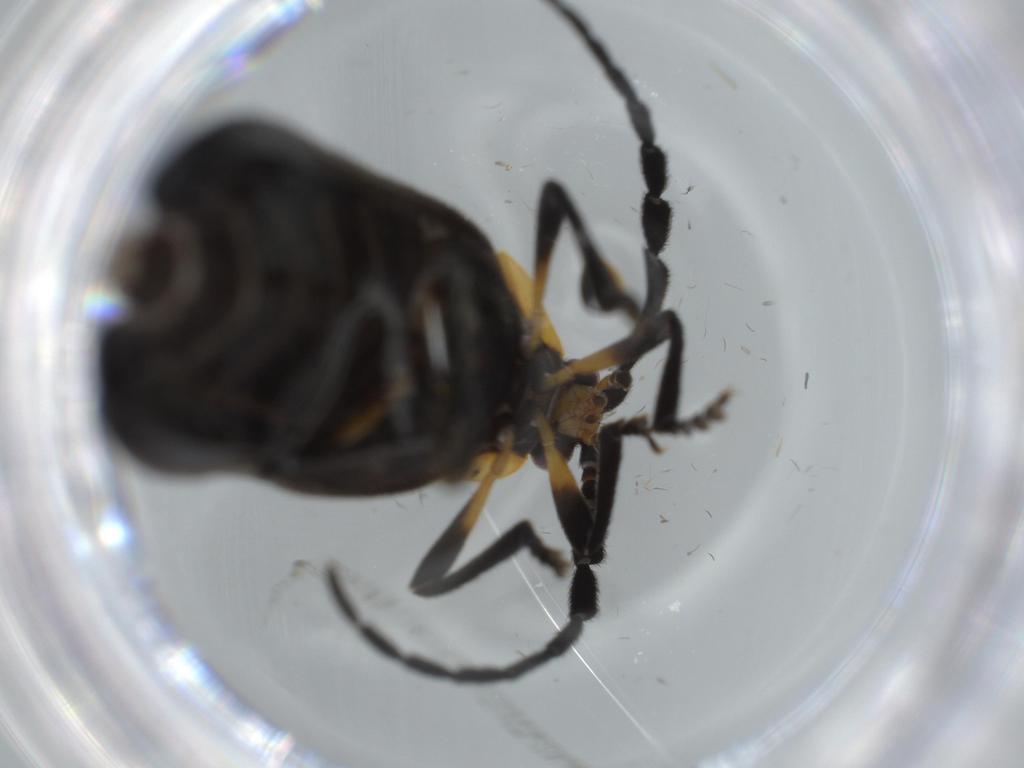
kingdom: Animalia
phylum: Arthropoda
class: Insecta
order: Coleoptera
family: Lycidae
